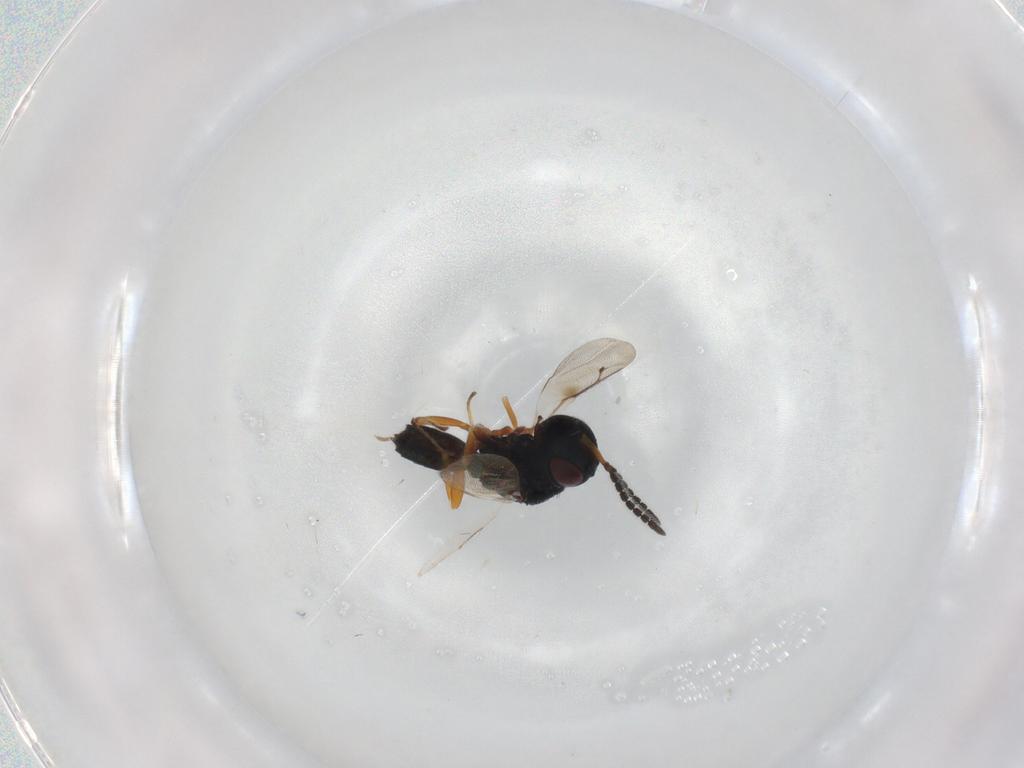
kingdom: Animalia
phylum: Arthropoda
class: Insecta
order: Hymenoptera
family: Pteromalidae
